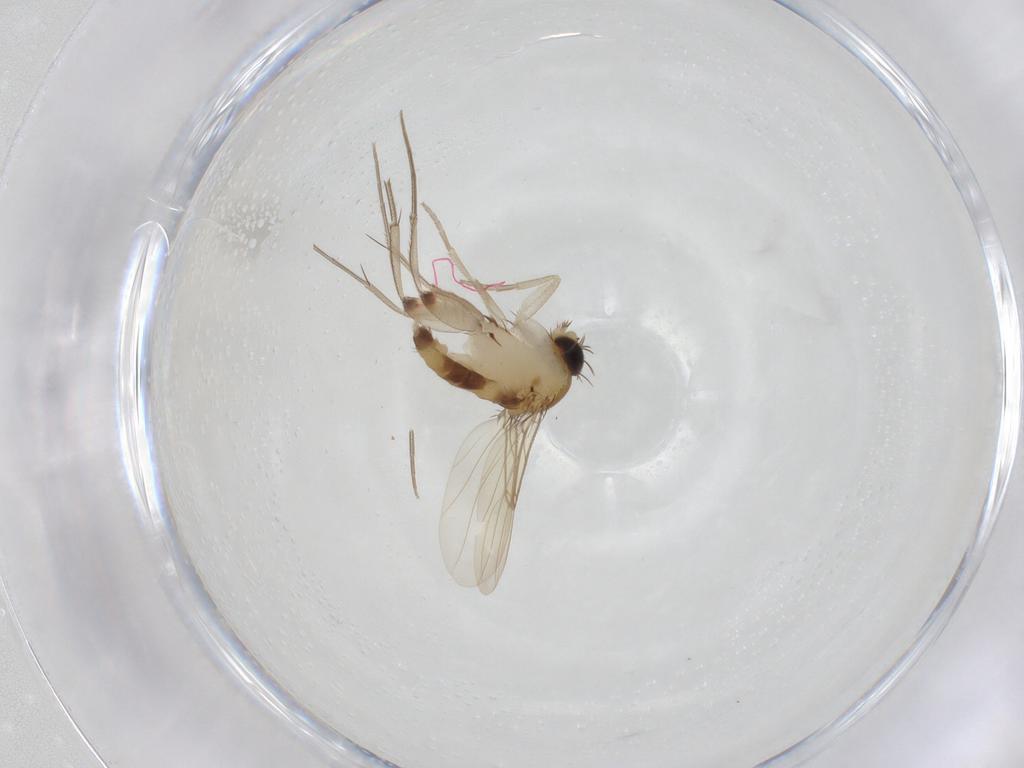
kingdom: Animalia
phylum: Arthropoda
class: Insecta
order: Diptera
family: Phoridae
